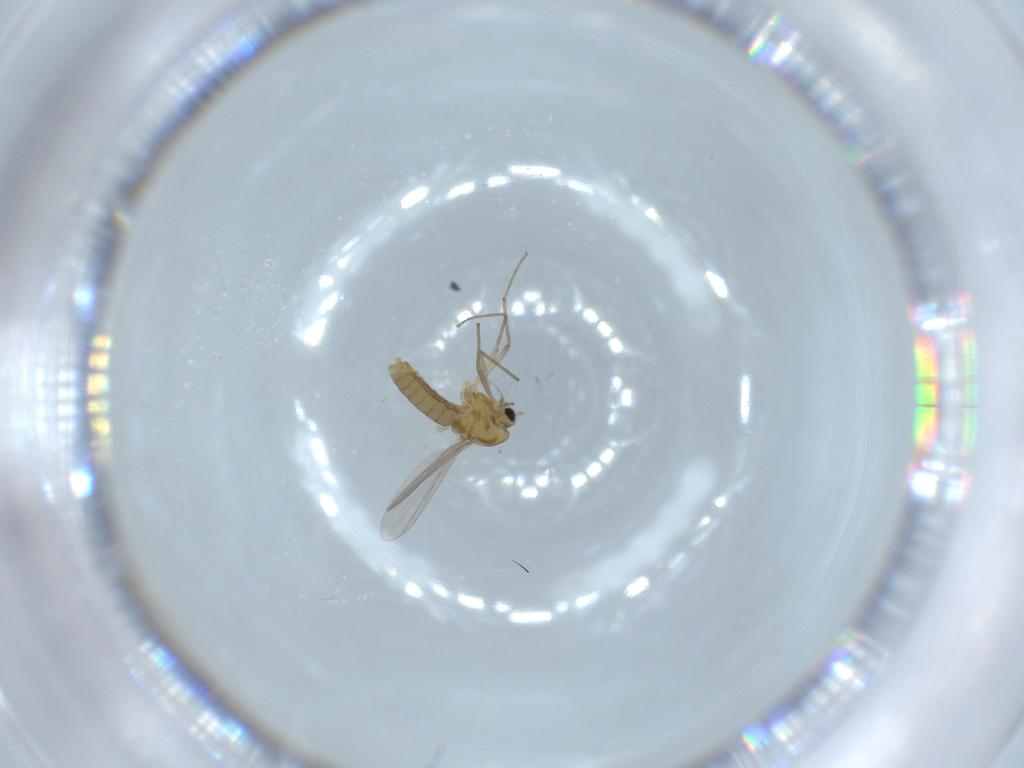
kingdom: Animalia
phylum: Arthropoda
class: Insecta
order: Diptera
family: Chironomidae
